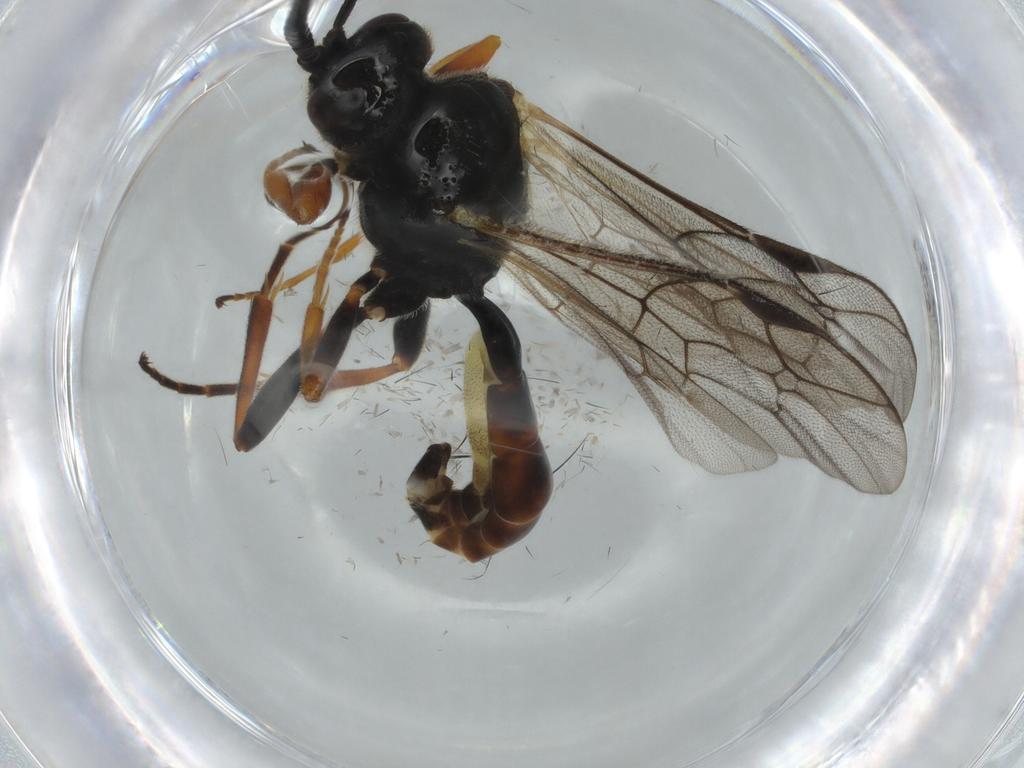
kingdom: Animalia
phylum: Arthropoda
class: Insecta
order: Hymenoptera
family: Ichneumonidae
